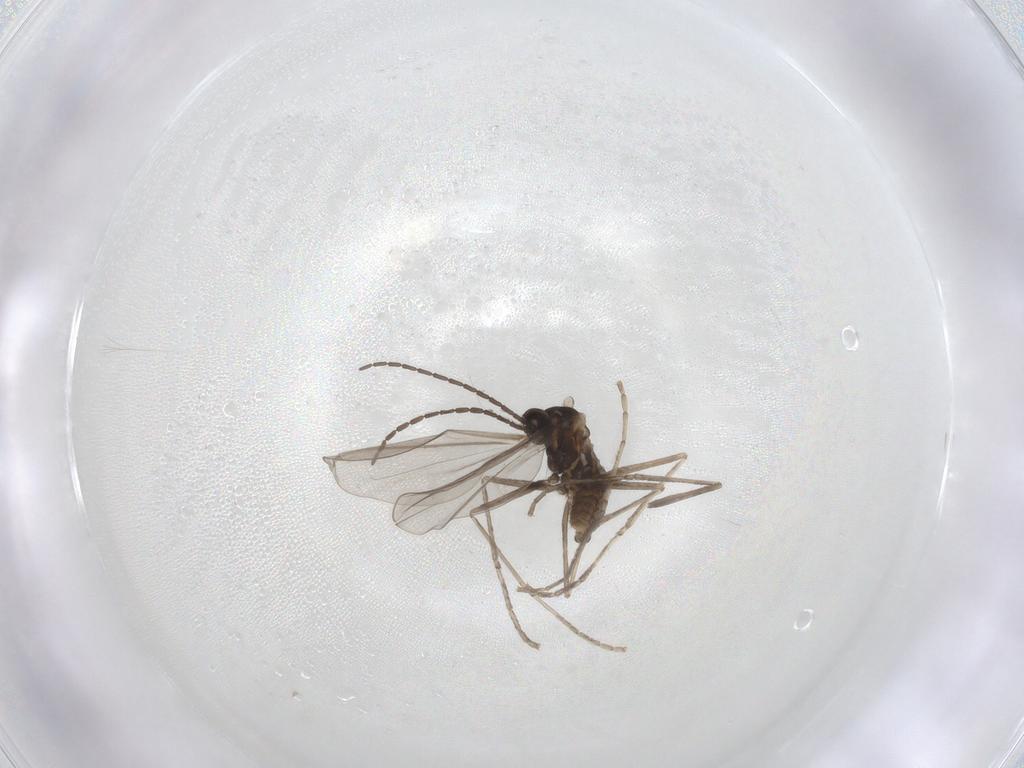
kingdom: Animalia
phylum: Arthropoda
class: Insecta
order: Diptera
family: Cecidomyiidae
